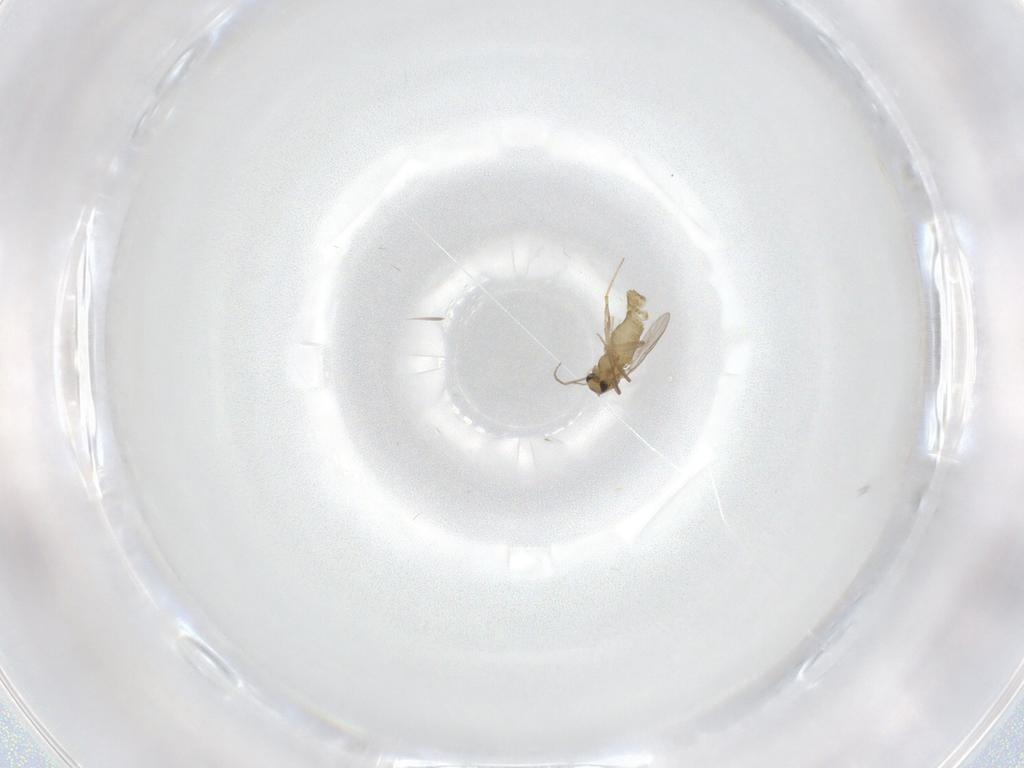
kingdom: Animalia
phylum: Arthropoda
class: Insecta
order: Diptera
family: Chironomidae
